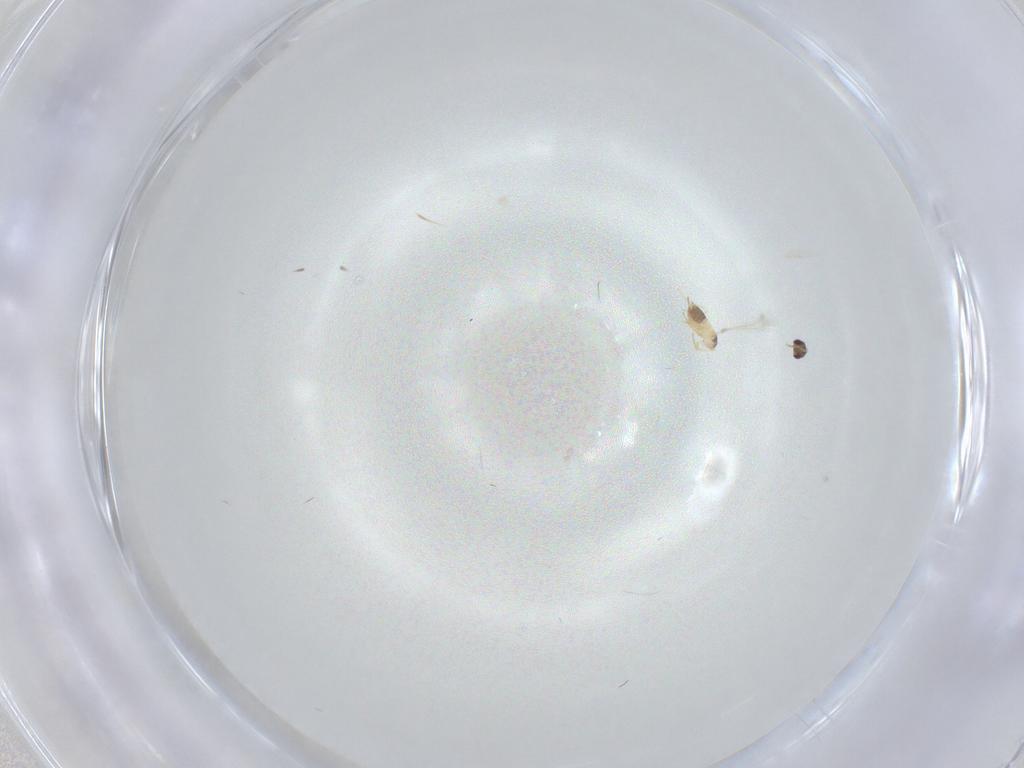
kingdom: Animalia
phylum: Arthropoda
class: Insecta
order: Hymenoptera
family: Mymaridae
